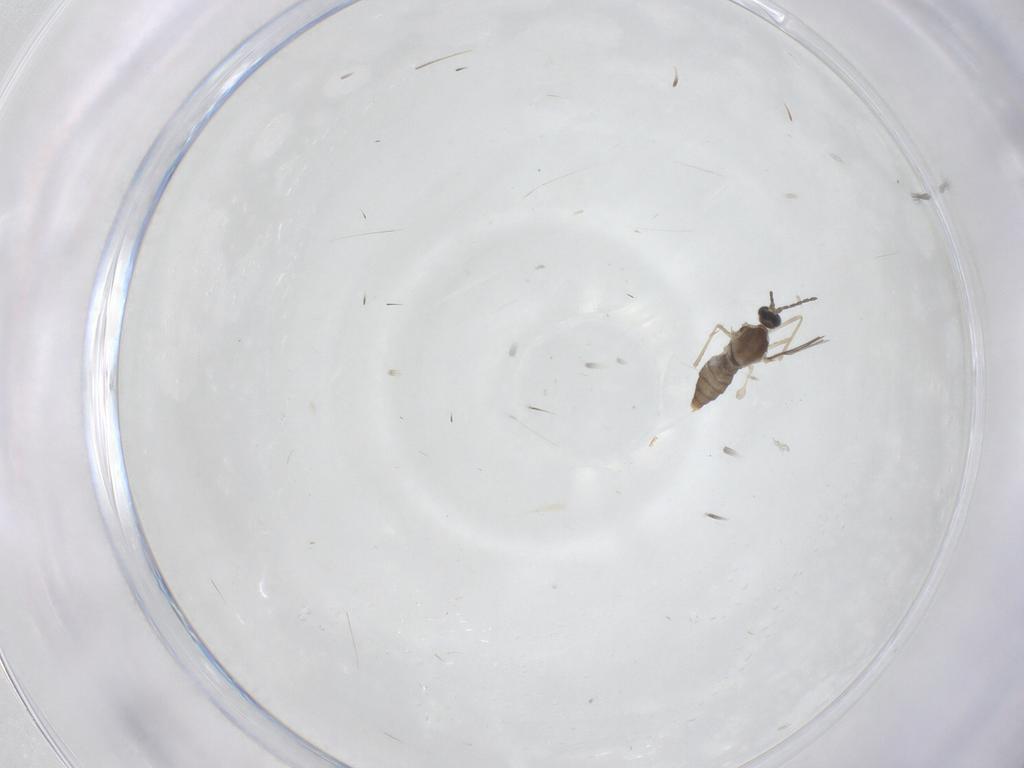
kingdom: Animalia
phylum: Arthropoda
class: Insecta
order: Diptera
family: Cecidomyiidae
